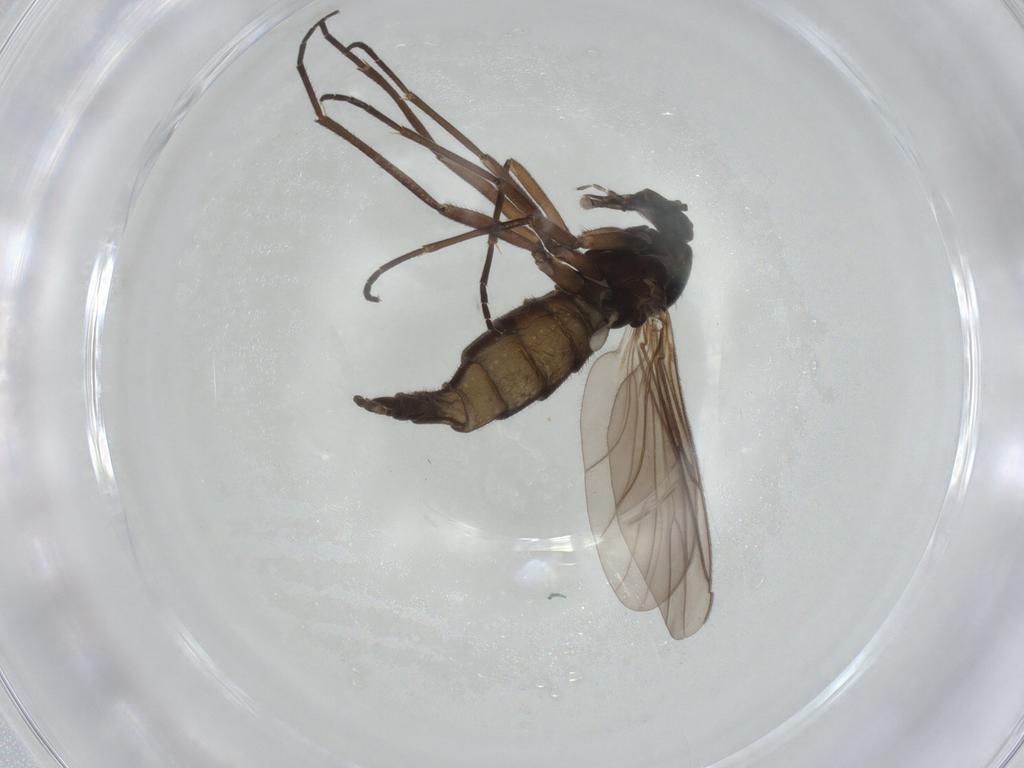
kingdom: Animalia
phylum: Arthropoda
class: Insecta
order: Diptera
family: Sciaridae
